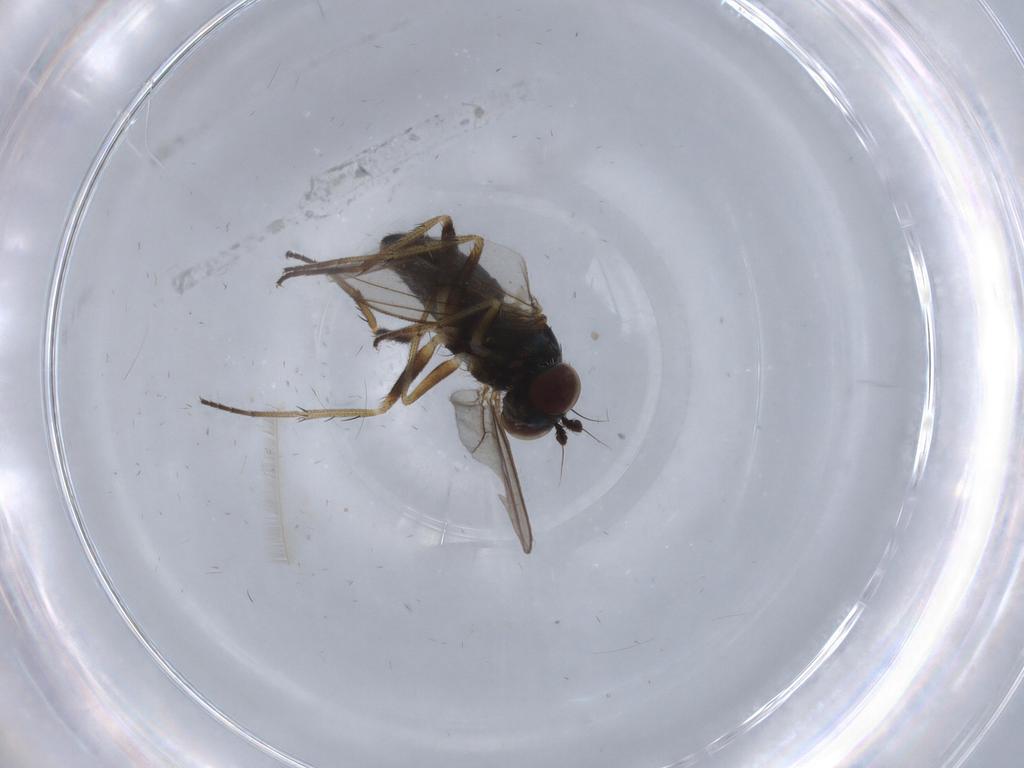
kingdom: Animalia
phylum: Arthropoda
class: Insecta
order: Diptera
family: Culicidae
